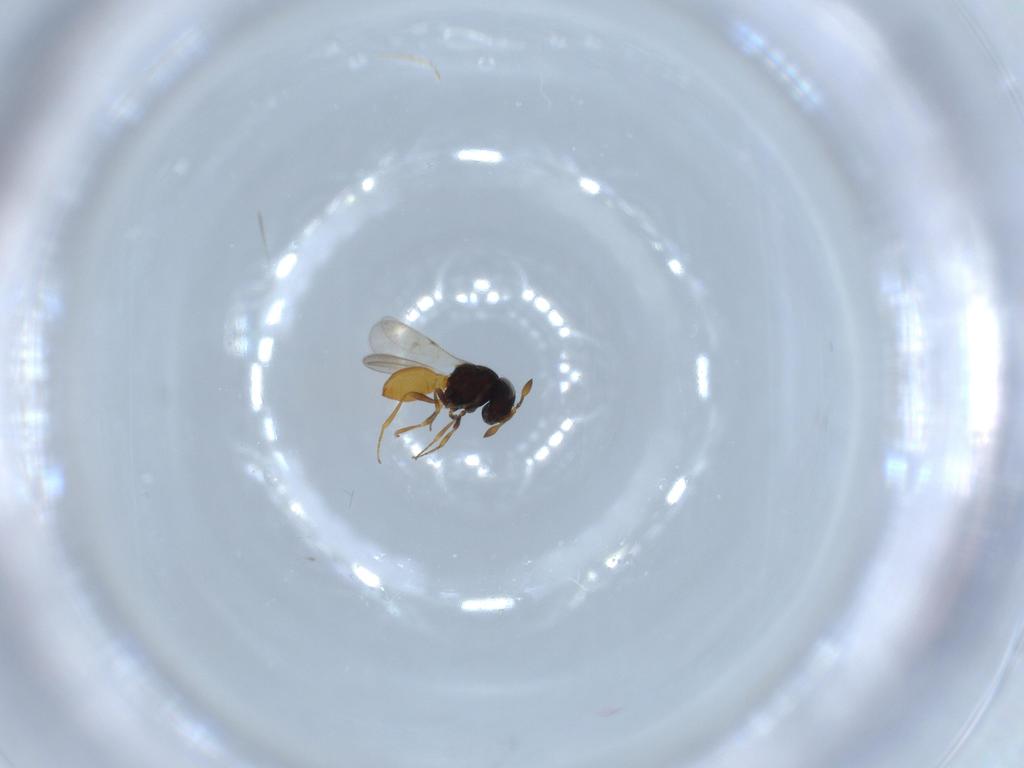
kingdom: Animalia
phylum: Arthropoda
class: Insecta
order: Hymenoptera
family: Scelionidae
